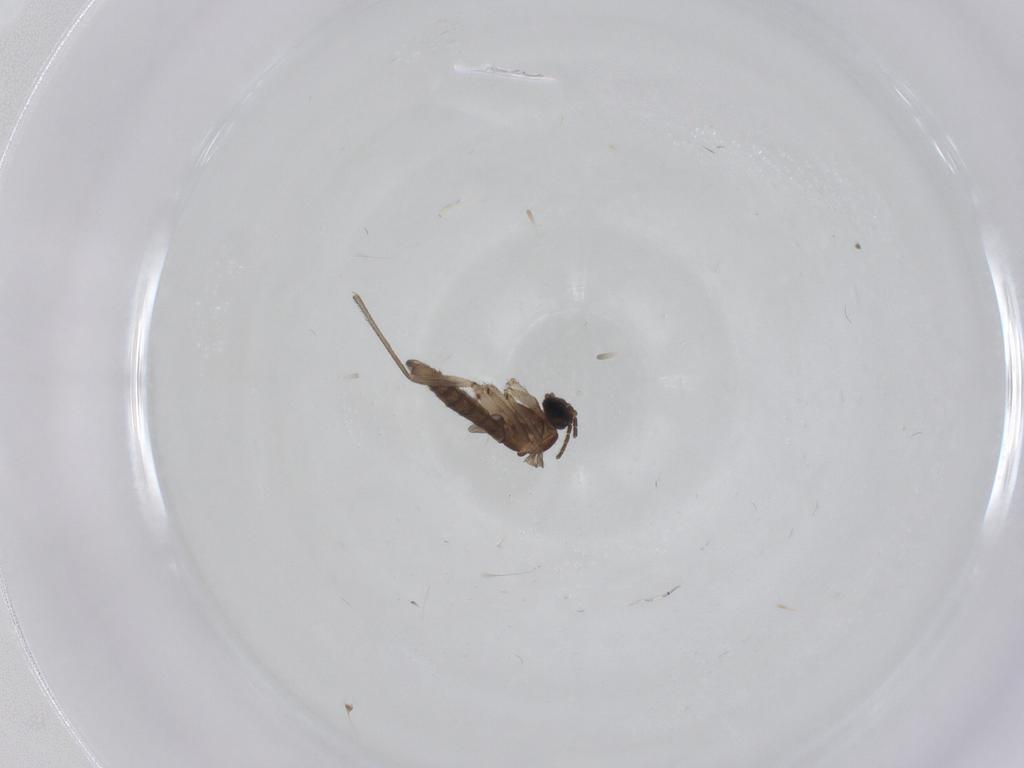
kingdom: Animalia
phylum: Arthropoda
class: Insecta
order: Diptera
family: Sciaridae
